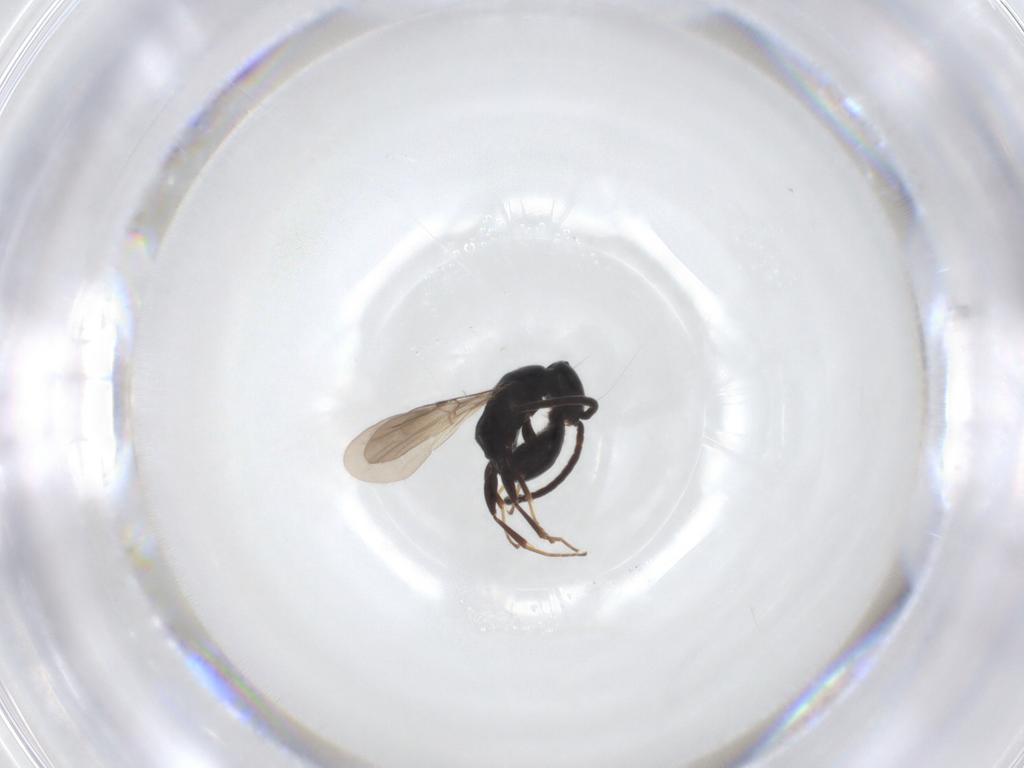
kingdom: Animalia
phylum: Arthropoda
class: Insecta
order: Hymenoptera
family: Bethylidae
